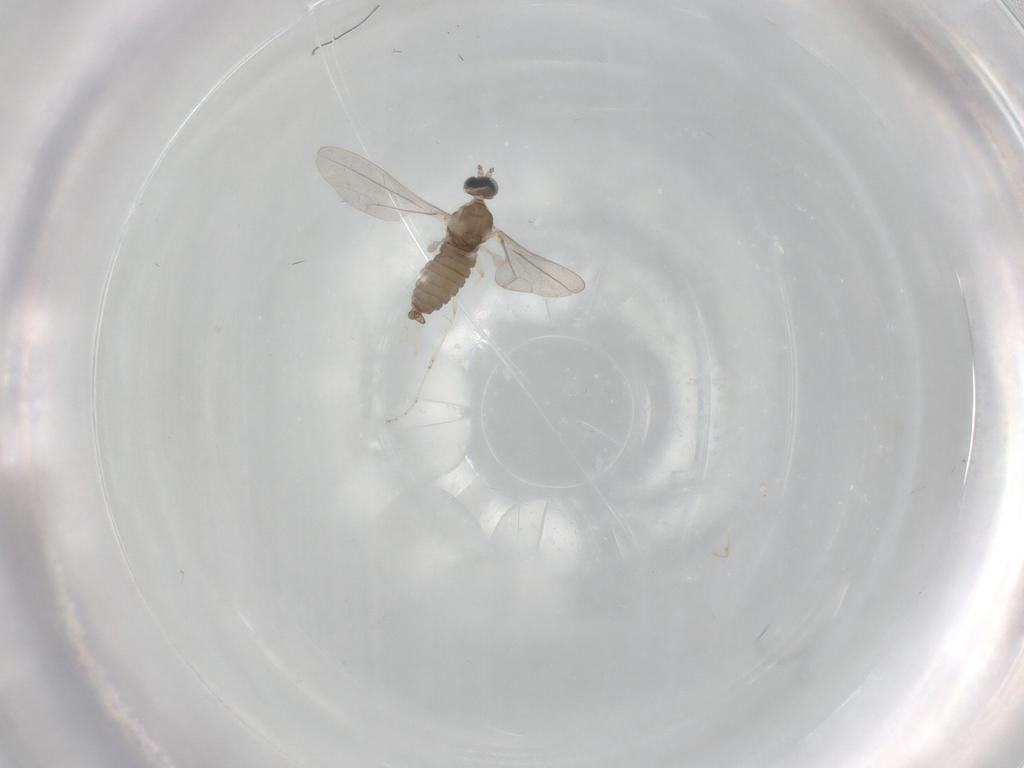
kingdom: Animalia
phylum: Arthropoda
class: Insecta
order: Diptera
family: Cecidomyiidae
